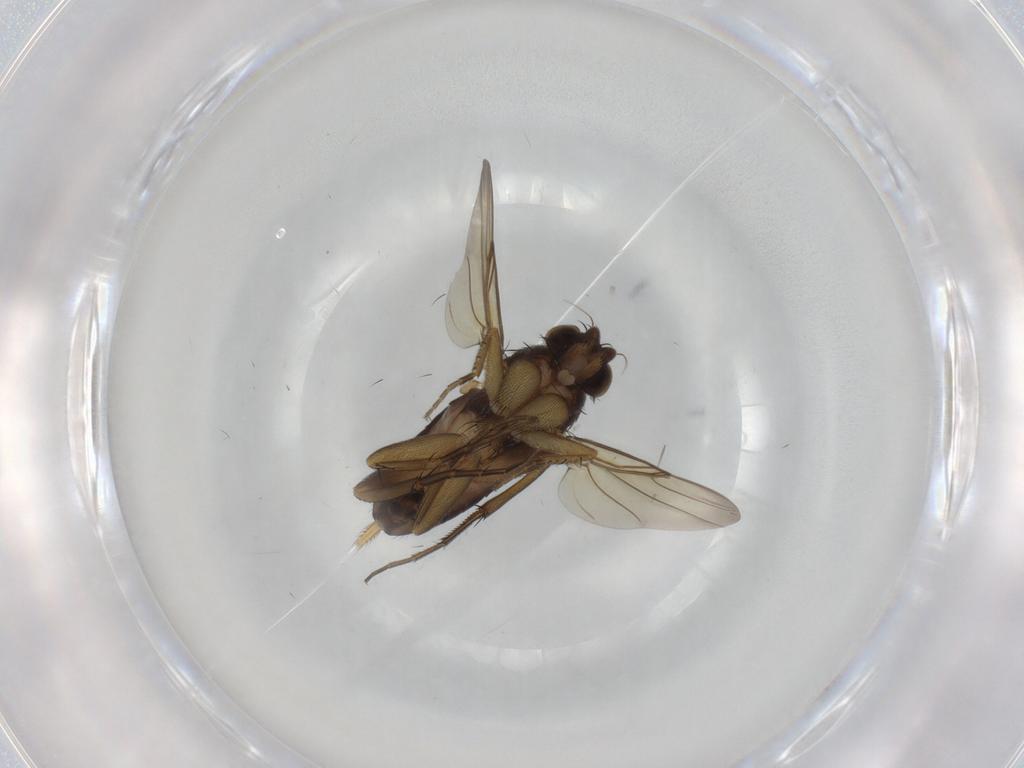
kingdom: Animalia
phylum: Arthropoda
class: Insecta
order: Diptera
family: Phoridae
